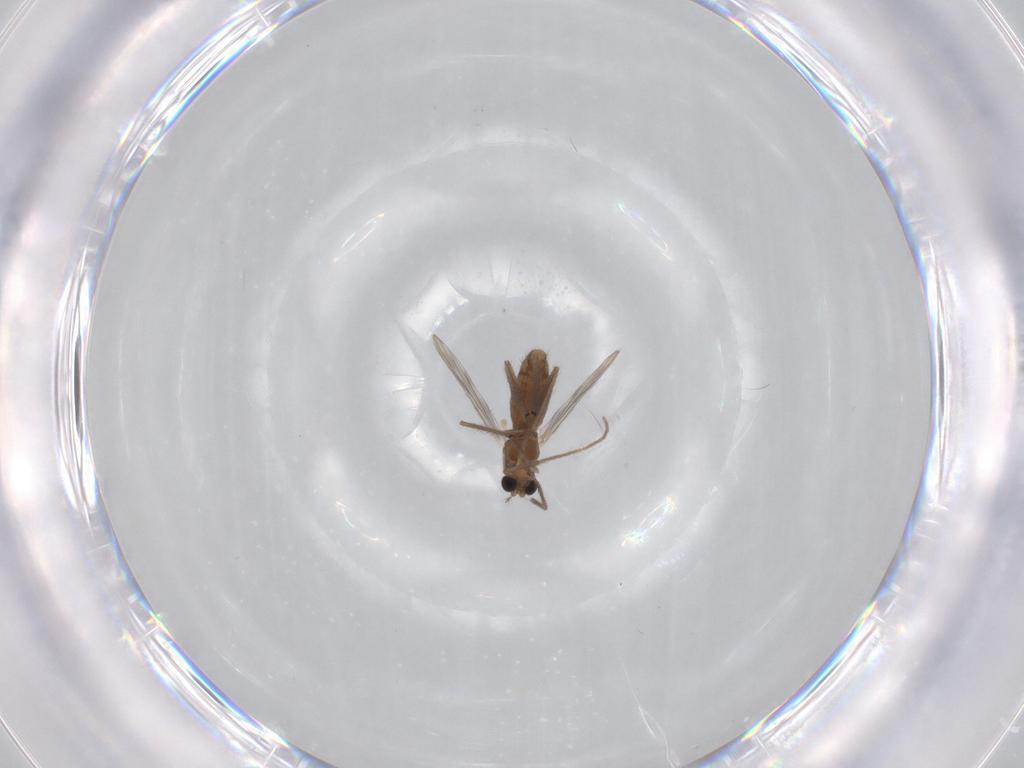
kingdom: Animalia
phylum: Arthropoda
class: Insecta
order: Diptera
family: Chironomidae
